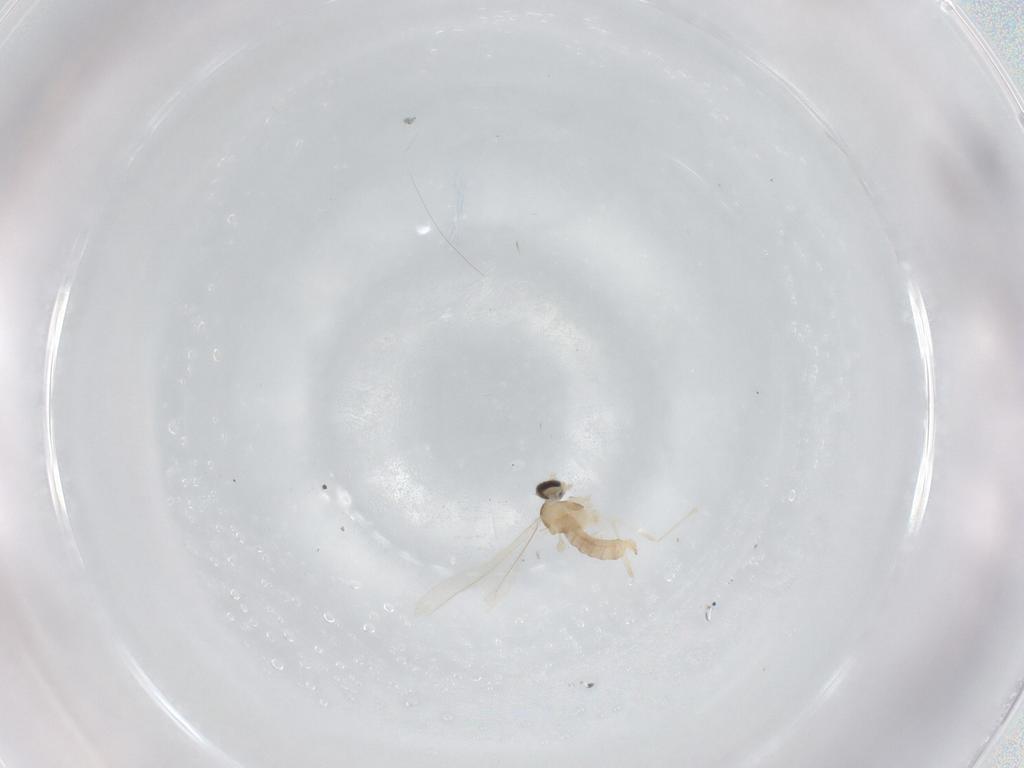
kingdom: Animalia
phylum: Arthropoda
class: Insecta
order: Diptera
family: Cecidomyiidae
